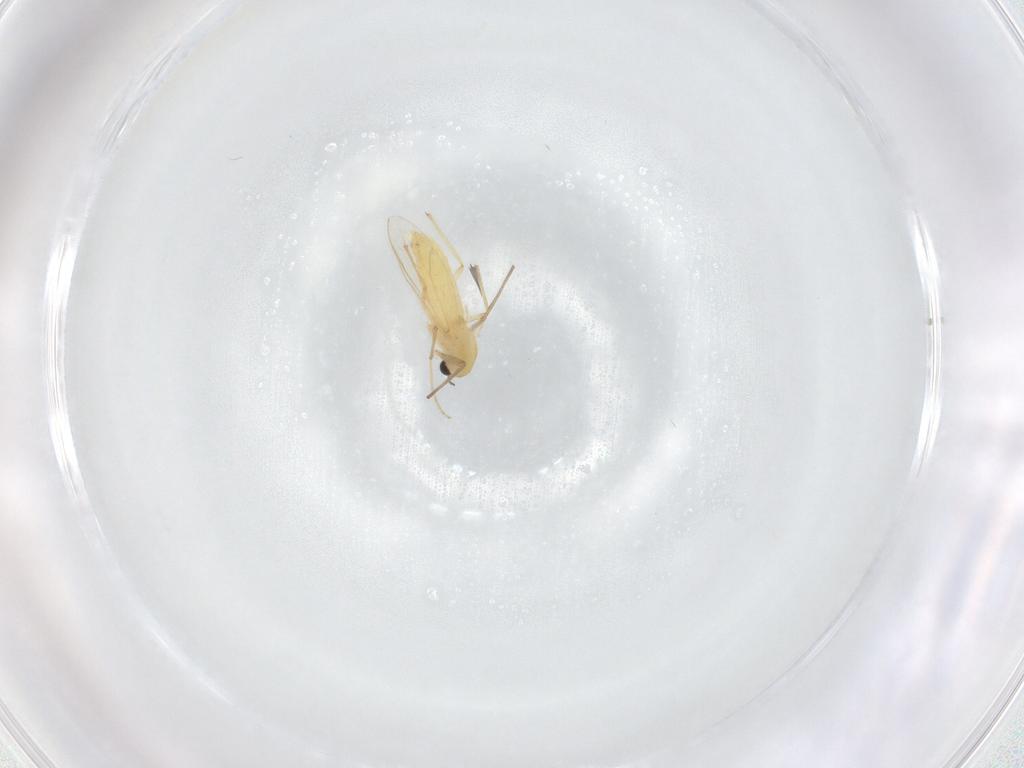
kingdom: Animalia
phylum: Arthropoda
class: Insecta
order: Diptera
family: Chironomidae
